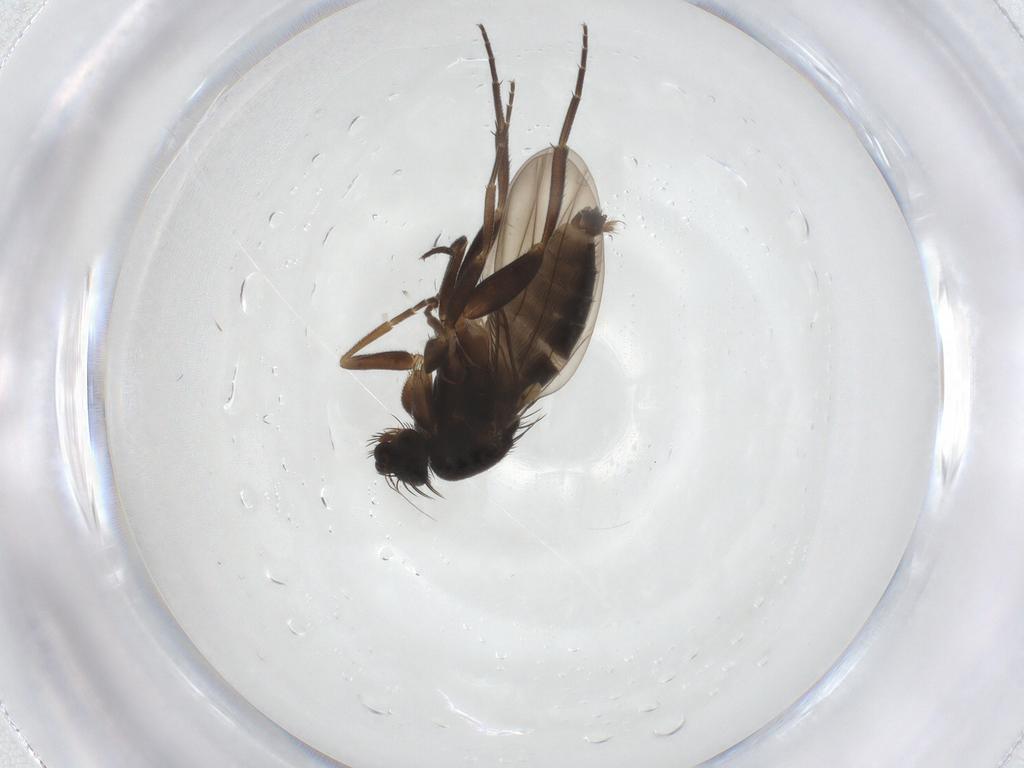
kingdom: Animalia
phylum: Arthropoda
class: Insecta
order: Diptera
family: Phoridae
